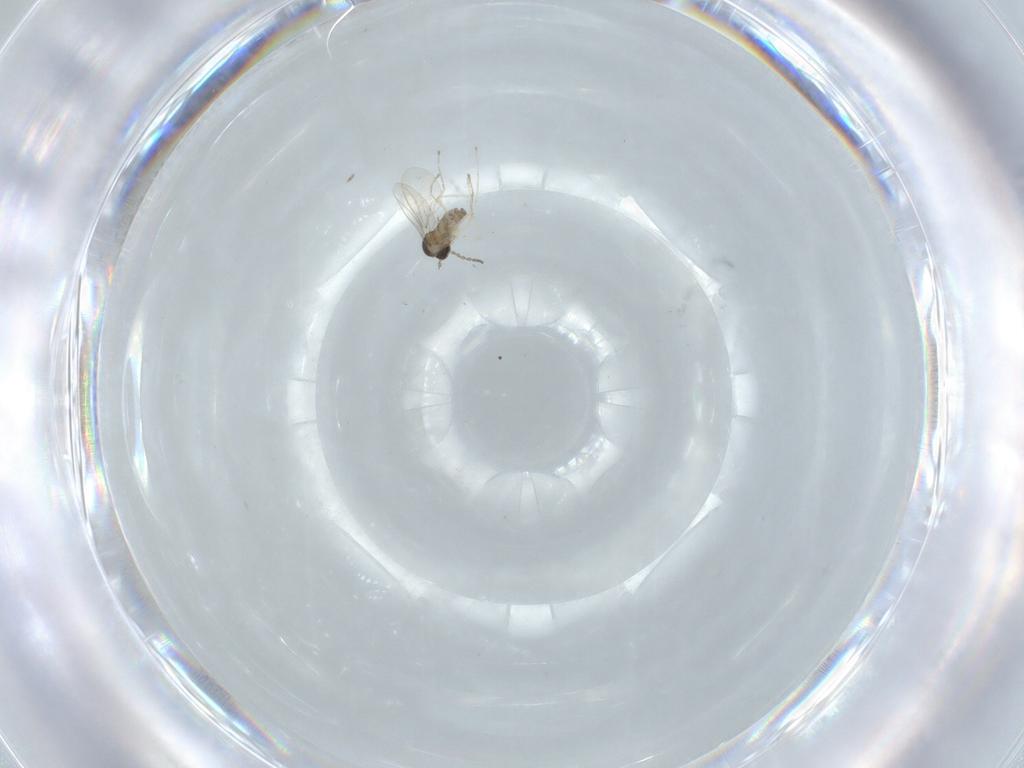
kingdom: Animalia
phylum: Arthropoda
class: Insecta
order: Diptera
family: Cecidomyiidae
